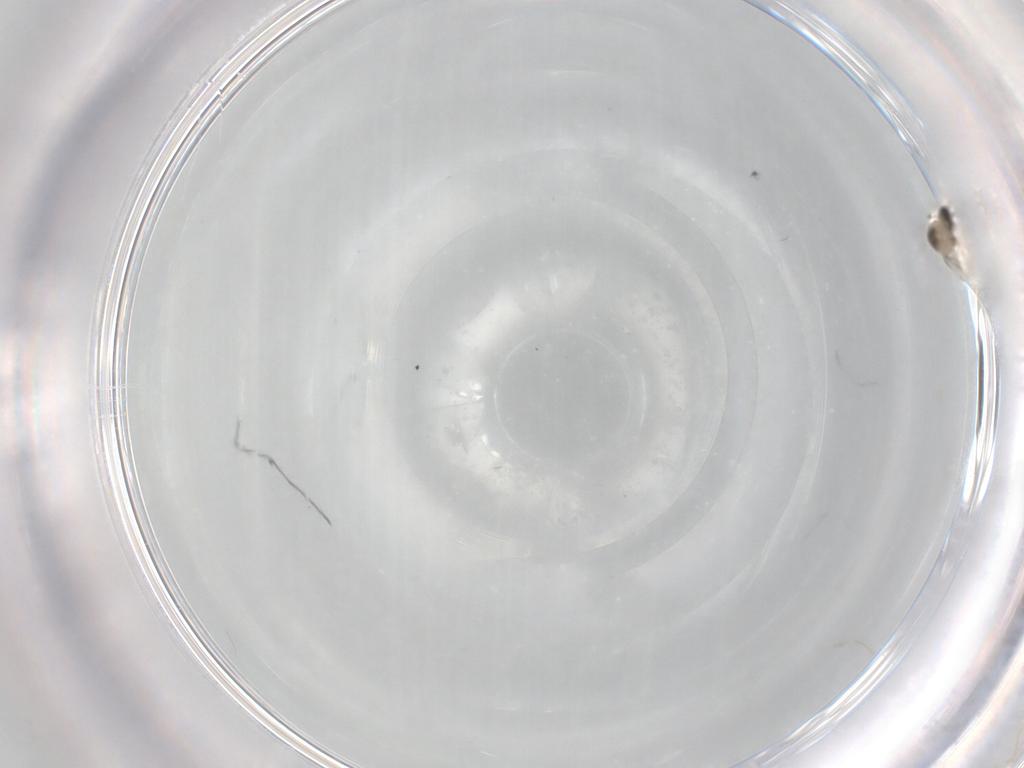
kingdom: Animalia
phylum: Arthropoda
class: Insecta
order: Diptera
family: Cecidomyiidae
